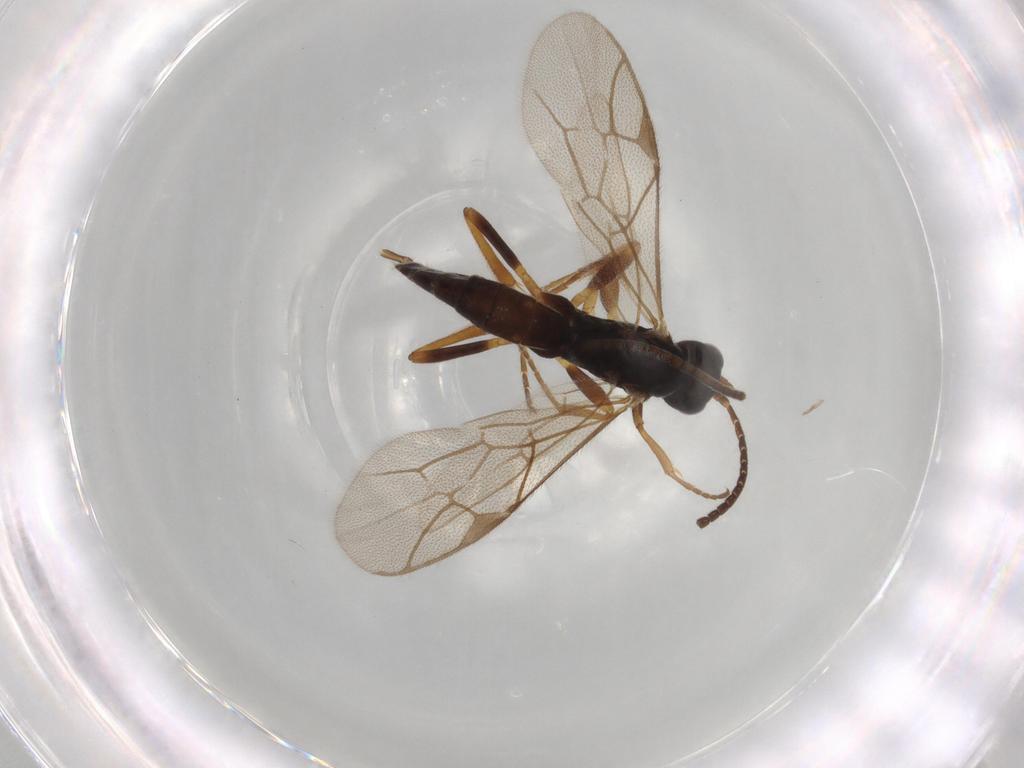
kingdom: Animalia
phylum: Arthropoda
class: Insecta
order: Hymenoptera
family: Ichneumonidae
